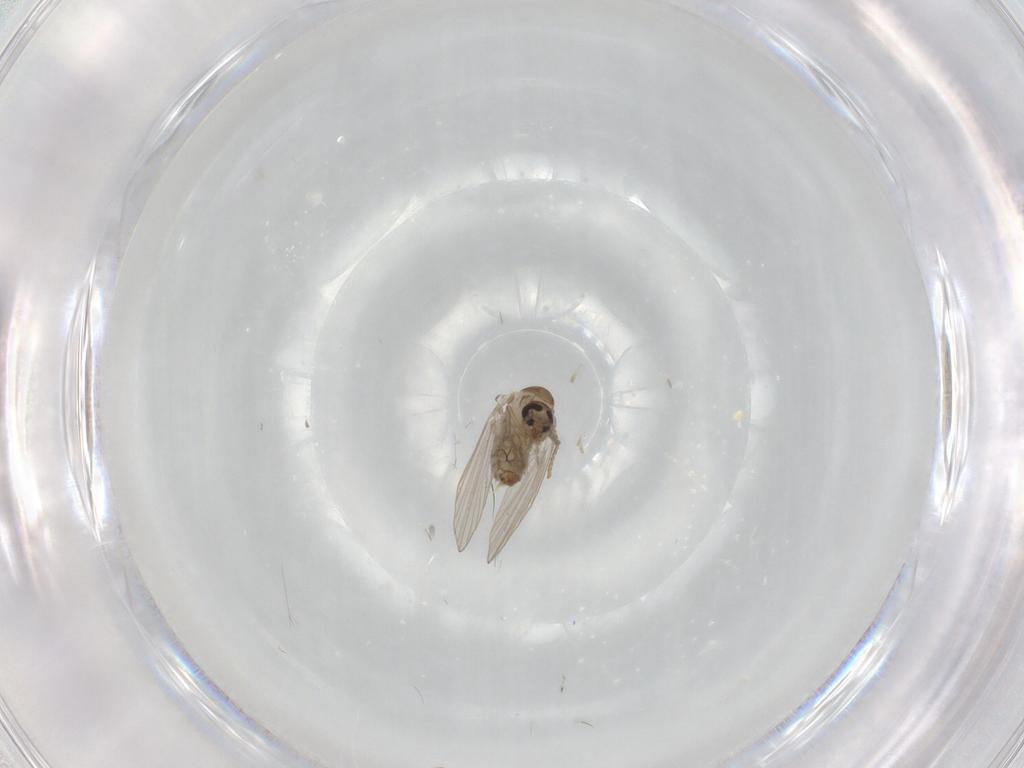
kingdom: Animalia
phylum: Arthropoda
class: Insecta
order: Diptera
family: Psychodidae
